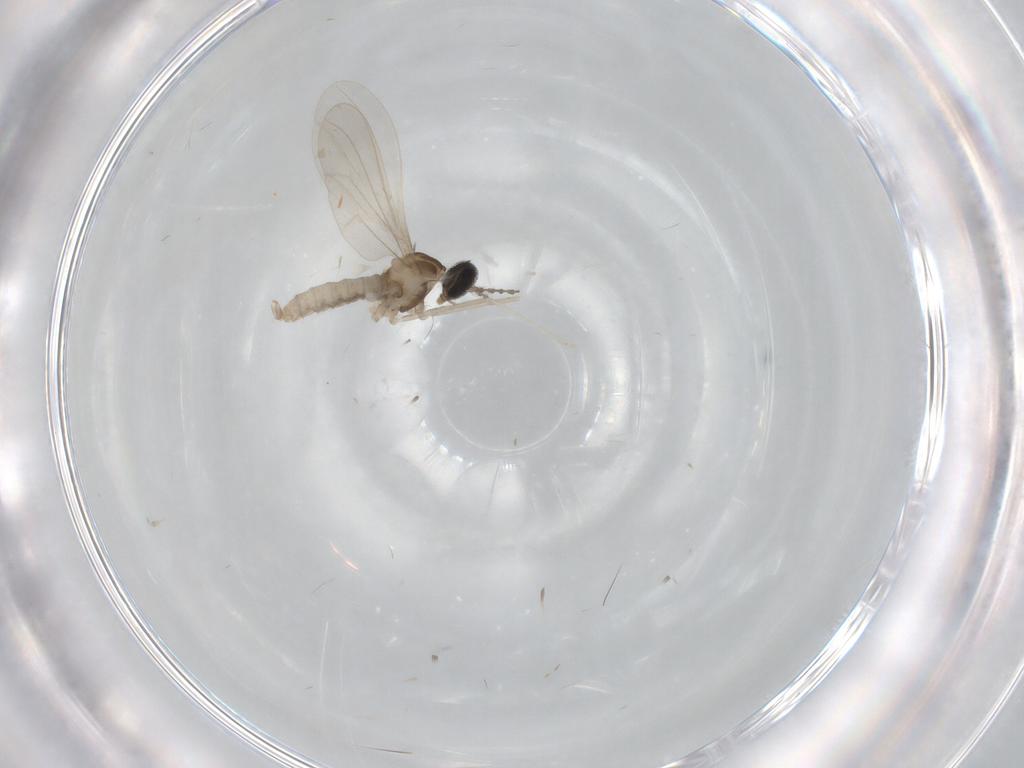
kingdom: Animalia
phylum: Arthropoda
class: Insecta
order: Diptera
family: Cecidomyiidae
